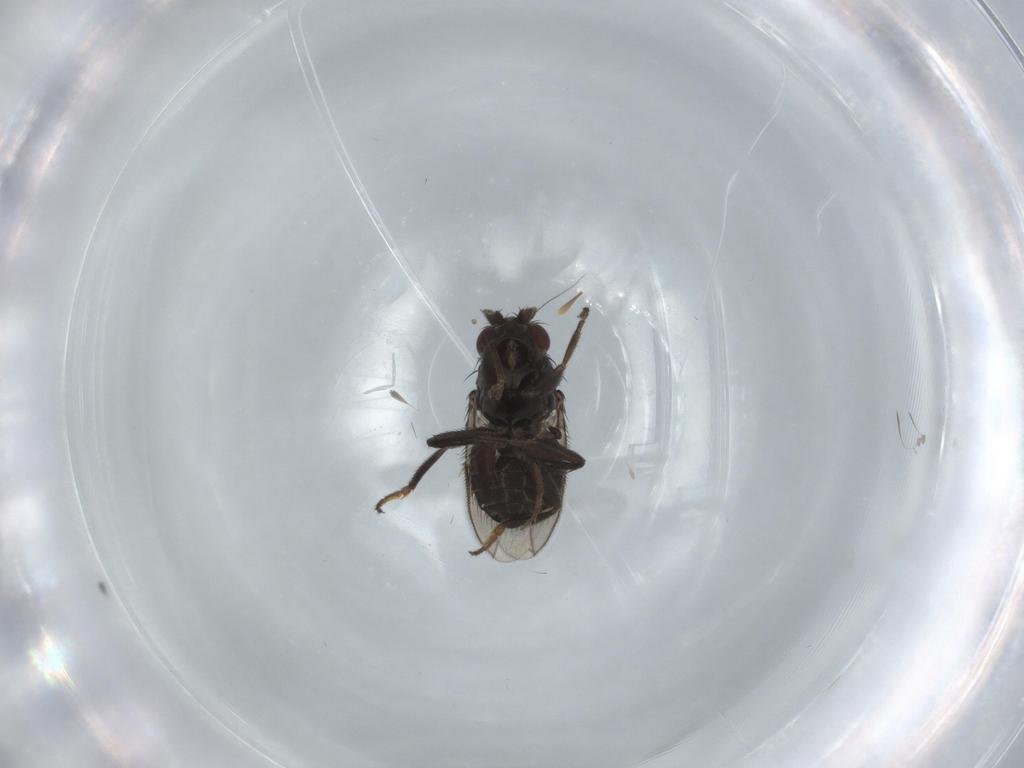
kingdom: Animalia
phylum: Arthropoda
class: Insecta
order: Diptera
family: Sphaeroceridae
